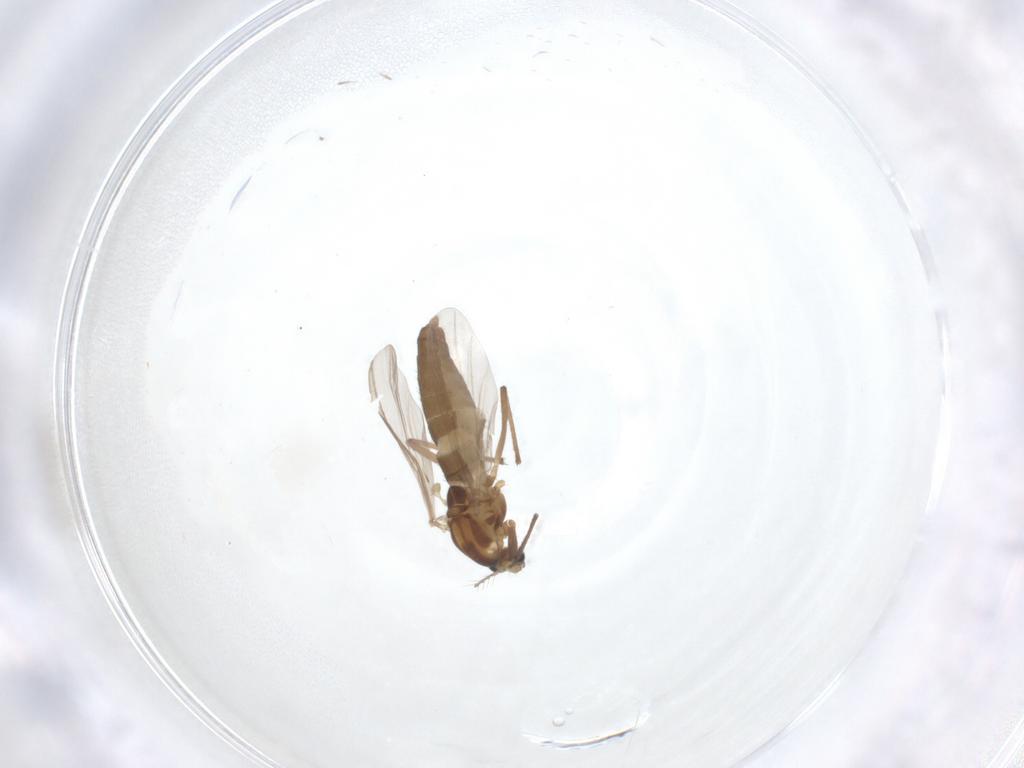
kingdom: Animalia
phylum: Arthropoda
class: Insecta
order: Diptera
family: Chironomidae
